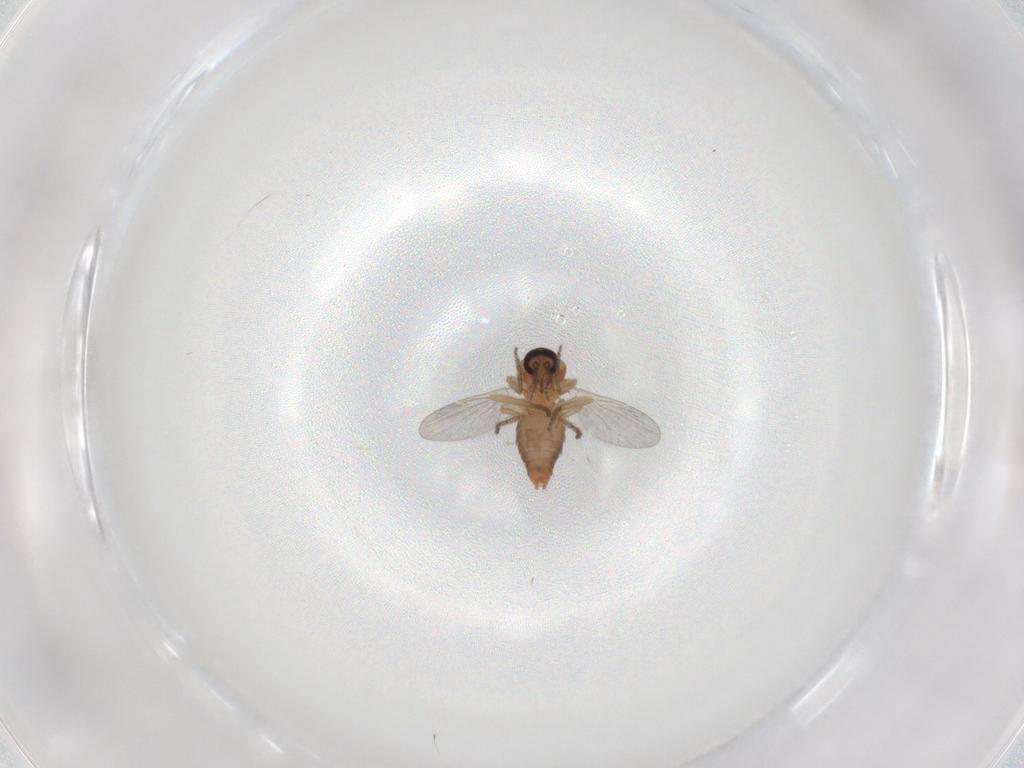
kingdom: Animalia
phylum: Arthropoda
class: Insecta
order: Diptera
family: Ceratopogonidae
